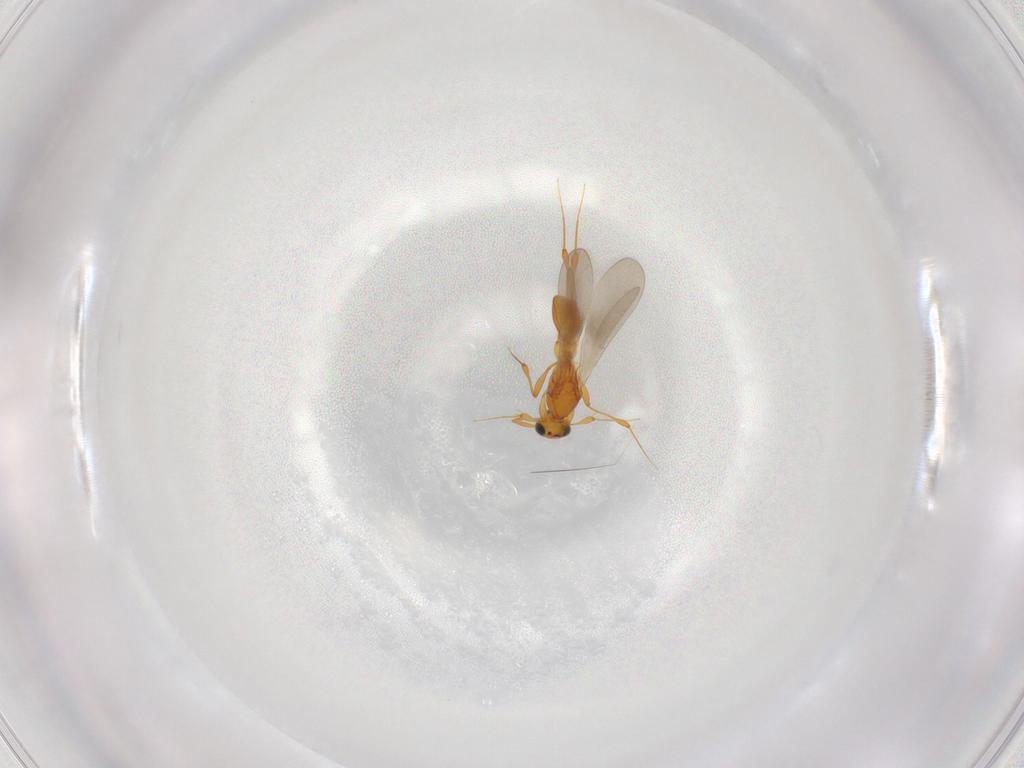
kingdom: Animalia
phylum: Arthropoda
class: Insecta
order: Hymenoptera
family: Platygastridae
